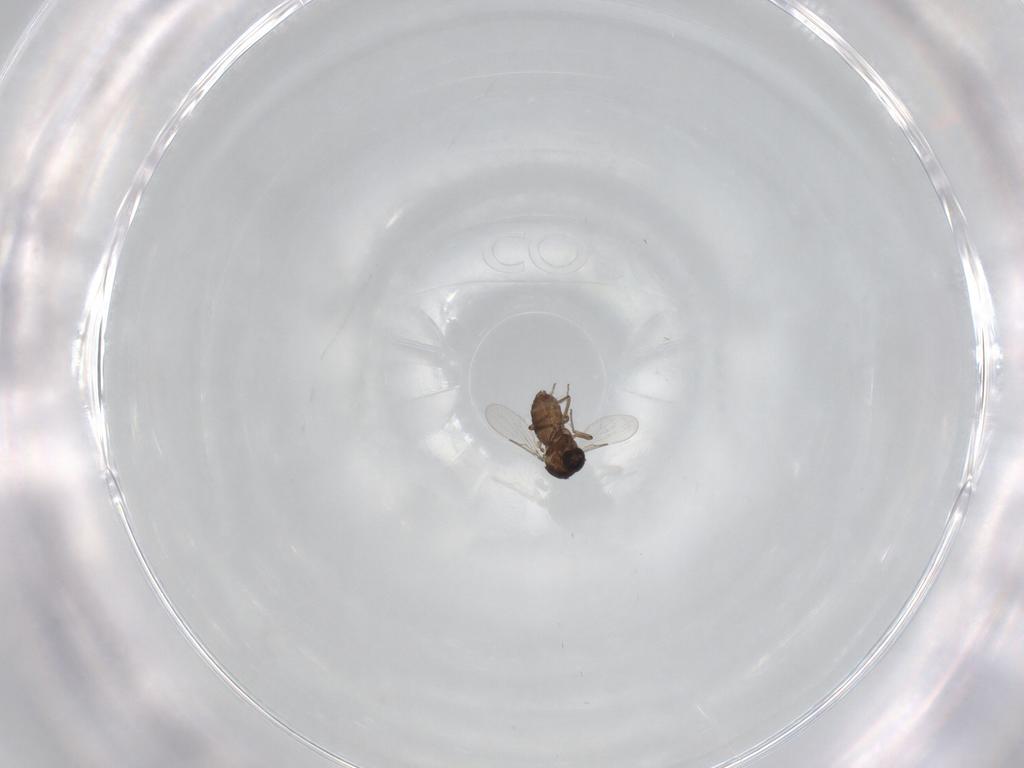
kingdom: Animalia
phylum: Arthropoda
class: Insecta
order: Diptera
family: Ceratopogonidae
